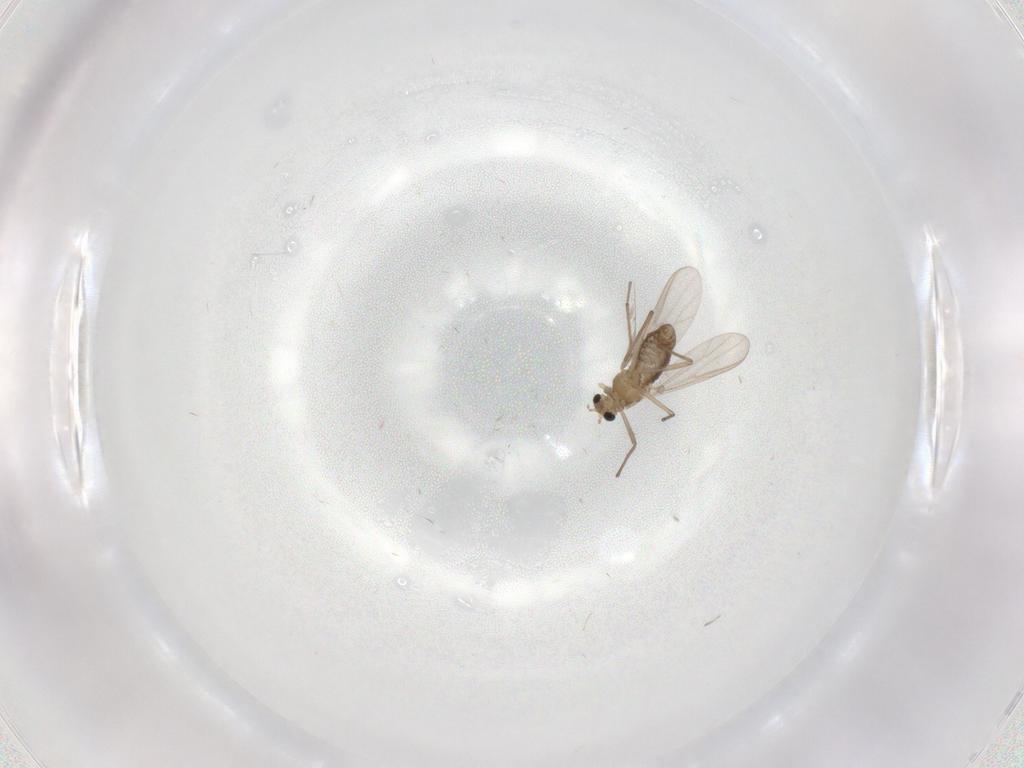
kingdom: Animalia
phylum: Arthropoda
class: Insecta
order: Diptera
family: Chironomidae
